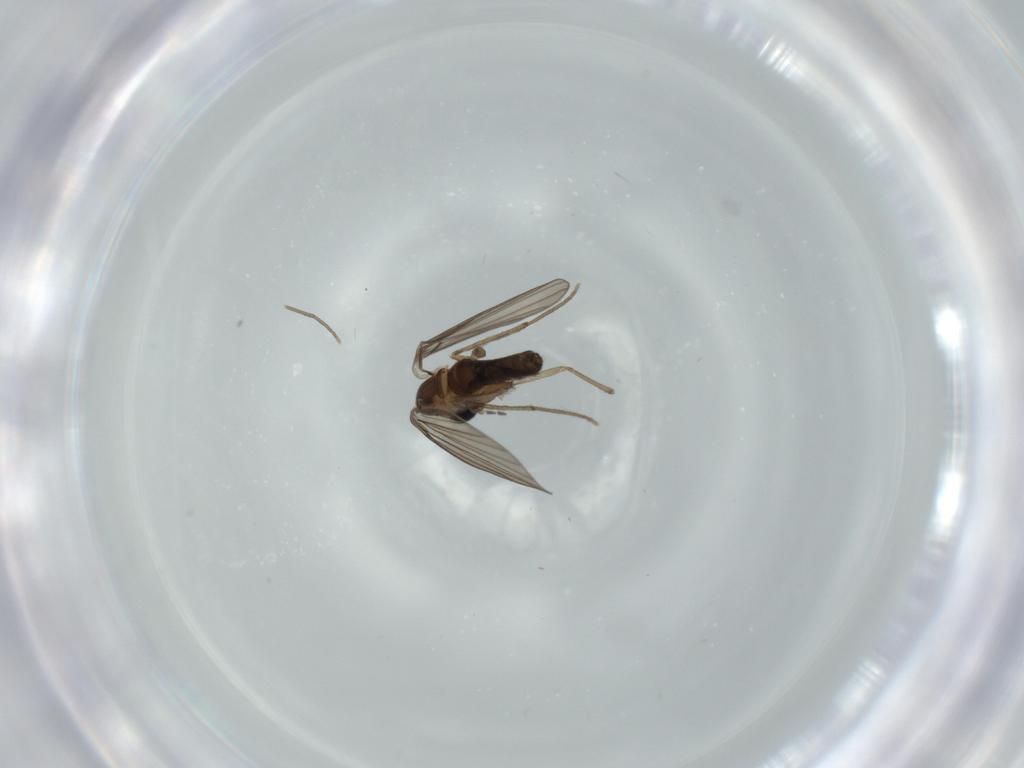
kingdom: Animalia
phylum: Arthropoda
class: Insecta
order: Diptera
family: Psychodidae
